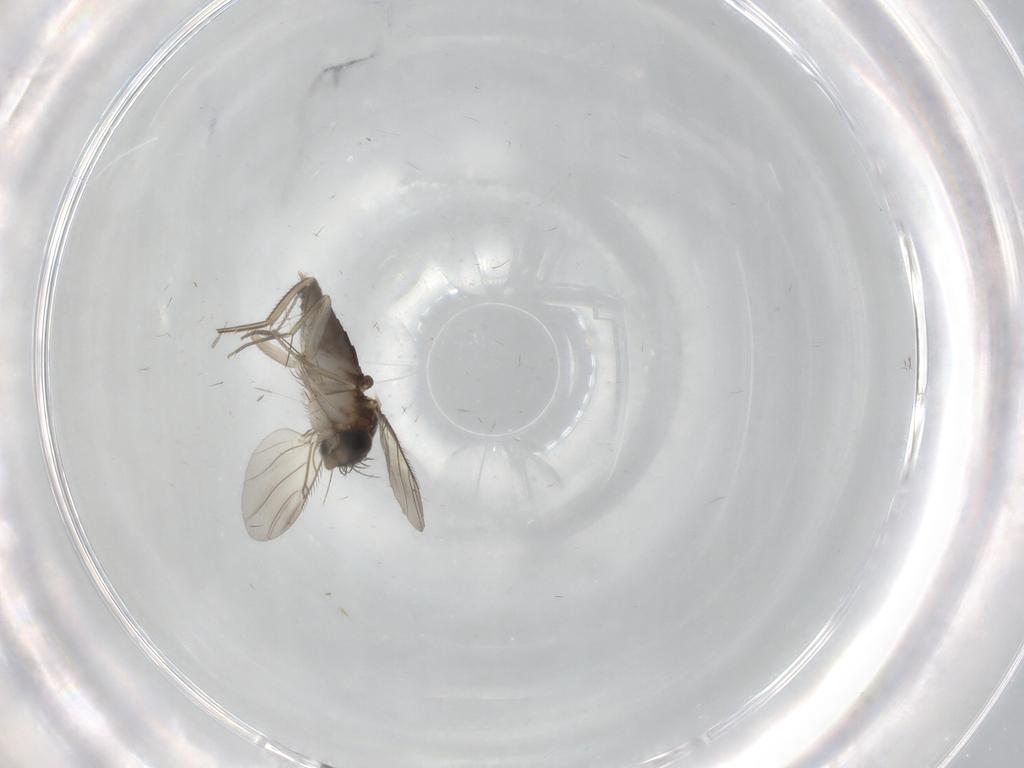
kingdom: Animalia
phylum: Arthropoda
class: Insecta
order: Diptera
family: Phoridae
